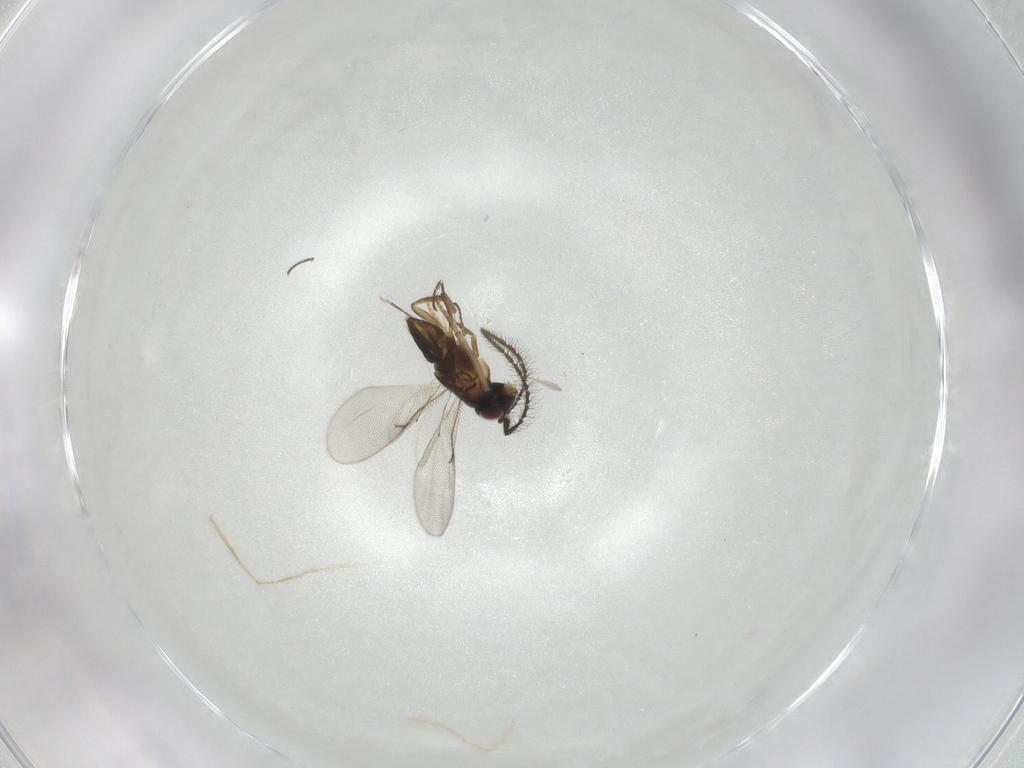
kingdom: Animalia
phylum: Arthropoda
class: Insecta
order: Hymenoptera
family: Encyrtidae
